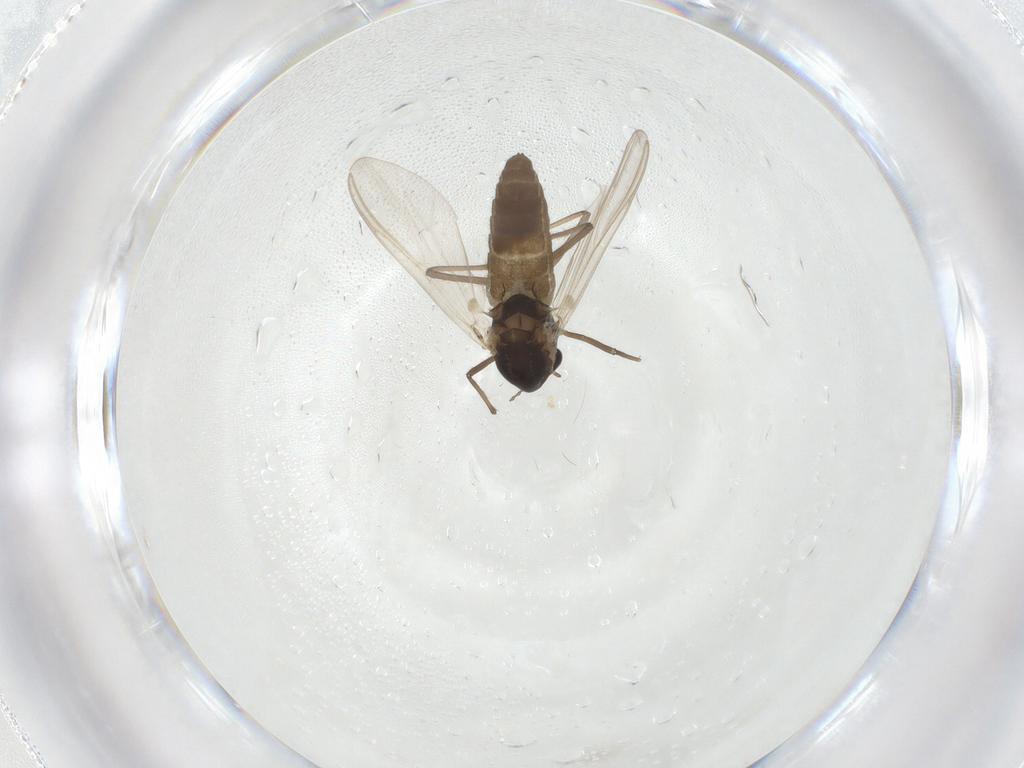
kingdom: Animalia
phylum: Arthropoda
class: Insecta
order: Diptera
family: Chironomidae
